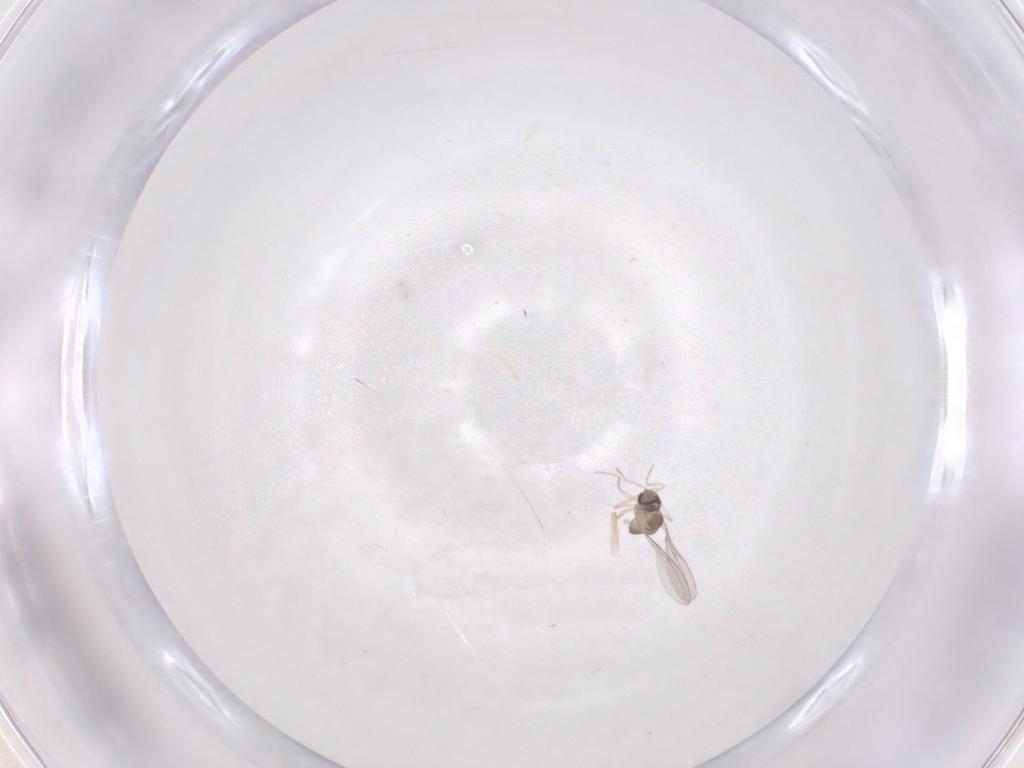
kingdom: Animalia
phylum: Arthropoda
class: Insecta
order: Diptera
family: Cecidomyiidae
